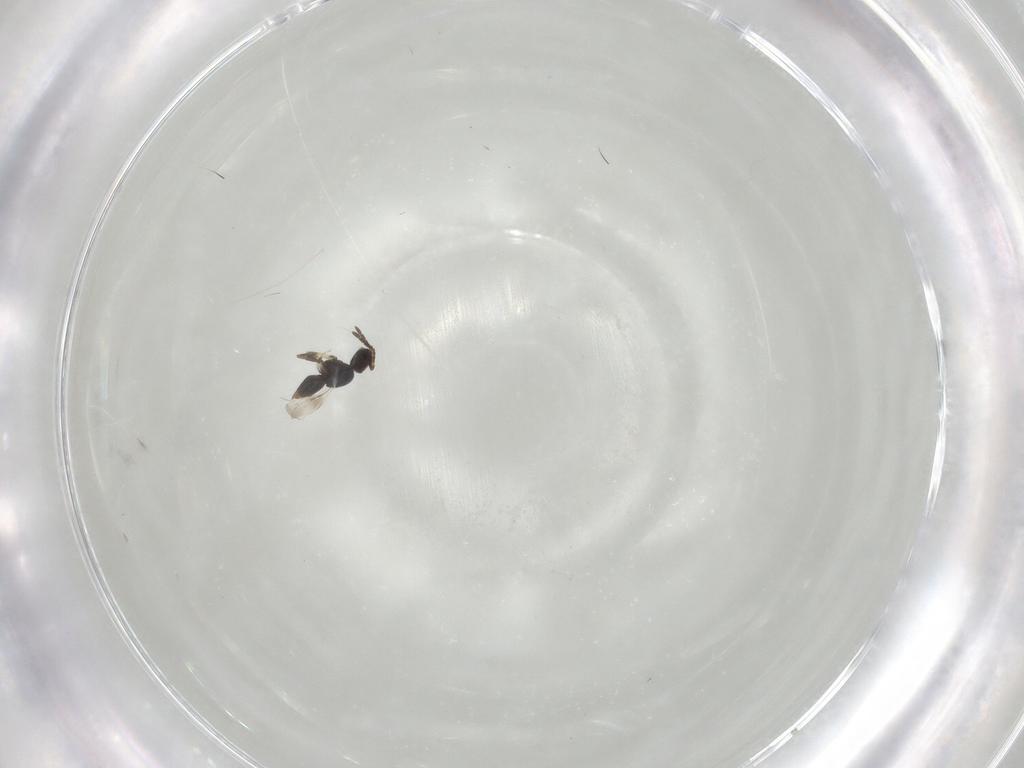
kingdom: Animalia
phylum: Arthropoda
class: Insecta
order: Hymenoptera
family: Ceraphronidae
